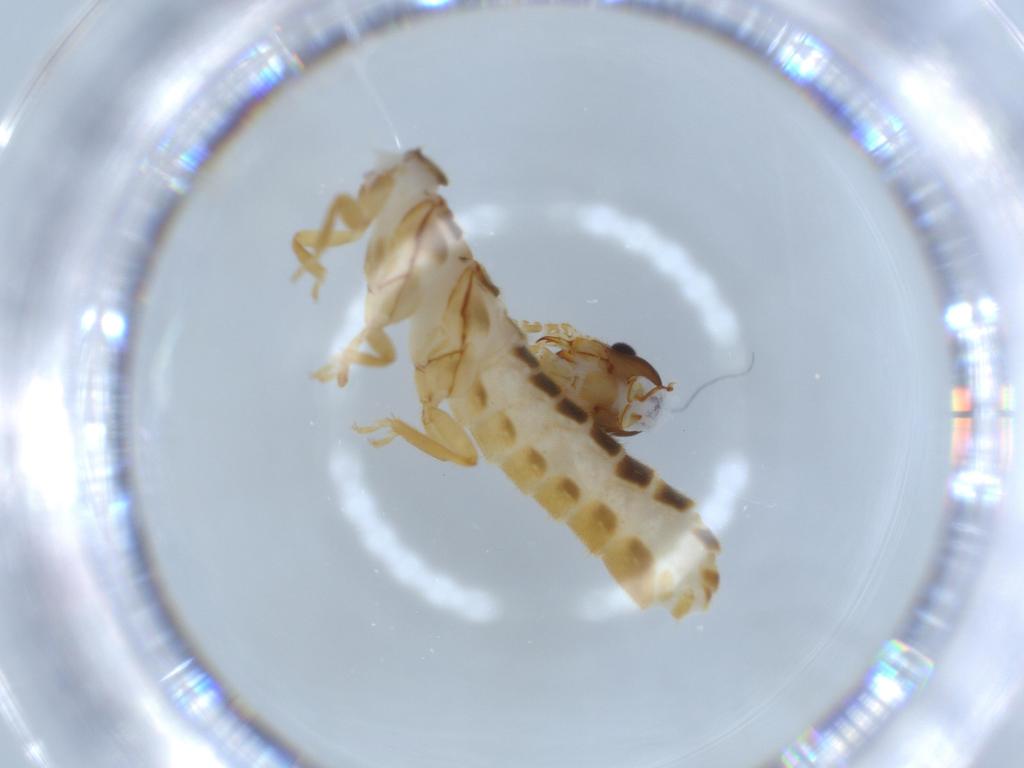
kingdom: Animalia
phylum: Arthropoda
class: Insecta
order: Blattodea
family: Termitidae
